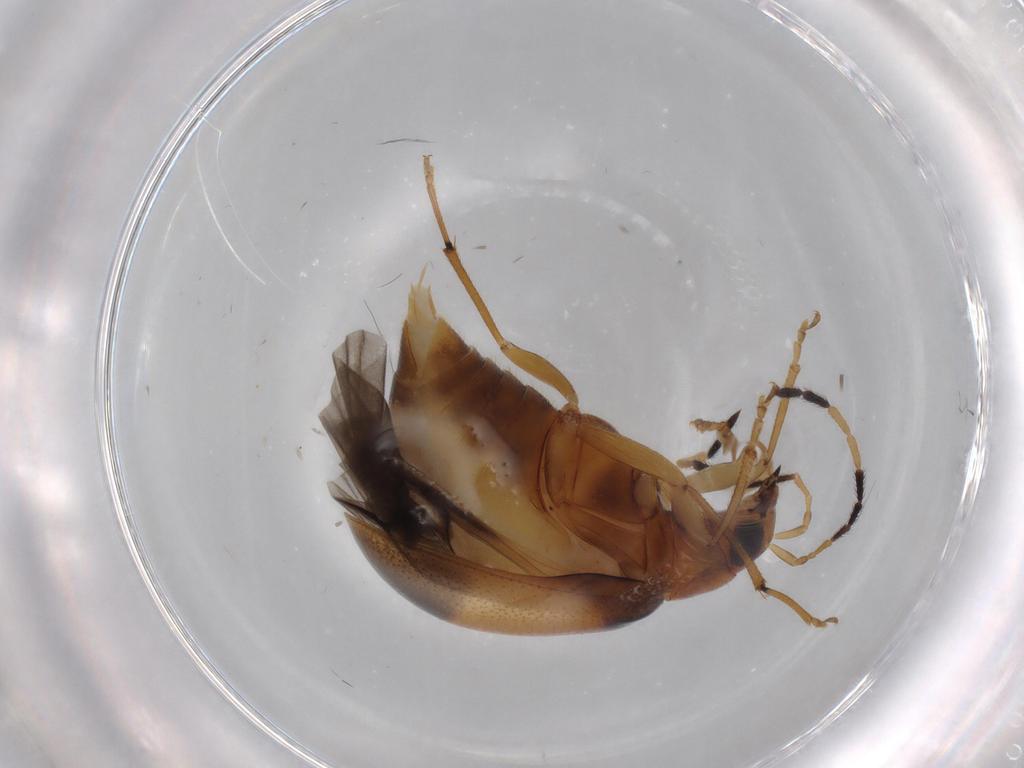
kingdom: Animalia
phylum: Arthropoda
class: Insecta
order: Coleoptera
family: Chrysomelidae
